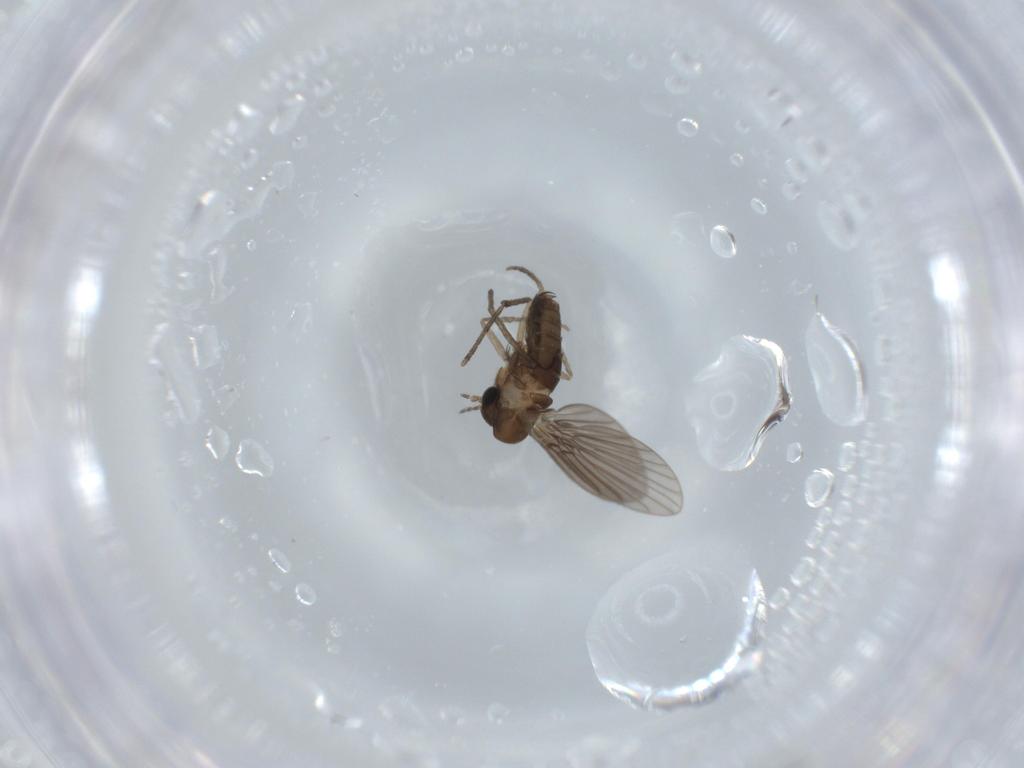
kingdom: Animalia
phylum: Arthropoda
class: Insecta
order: Diptera
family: Psychodidae
